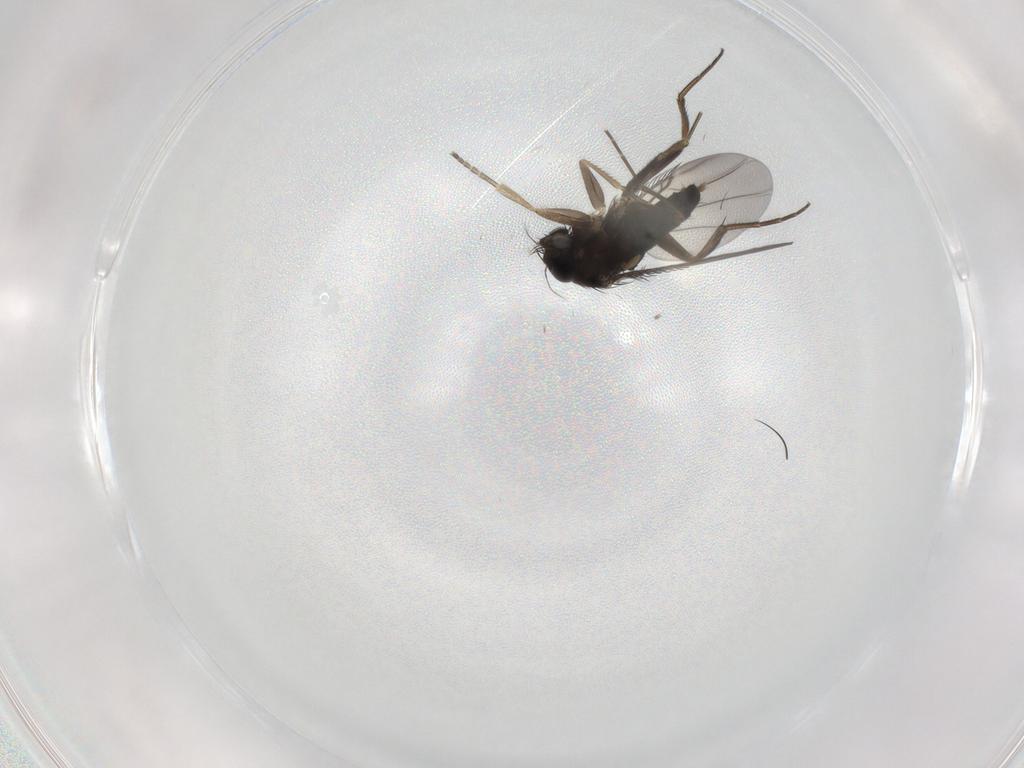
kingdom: Animalia
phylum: Arthropoda
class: Insecta
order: Diptera
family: Phoridae
